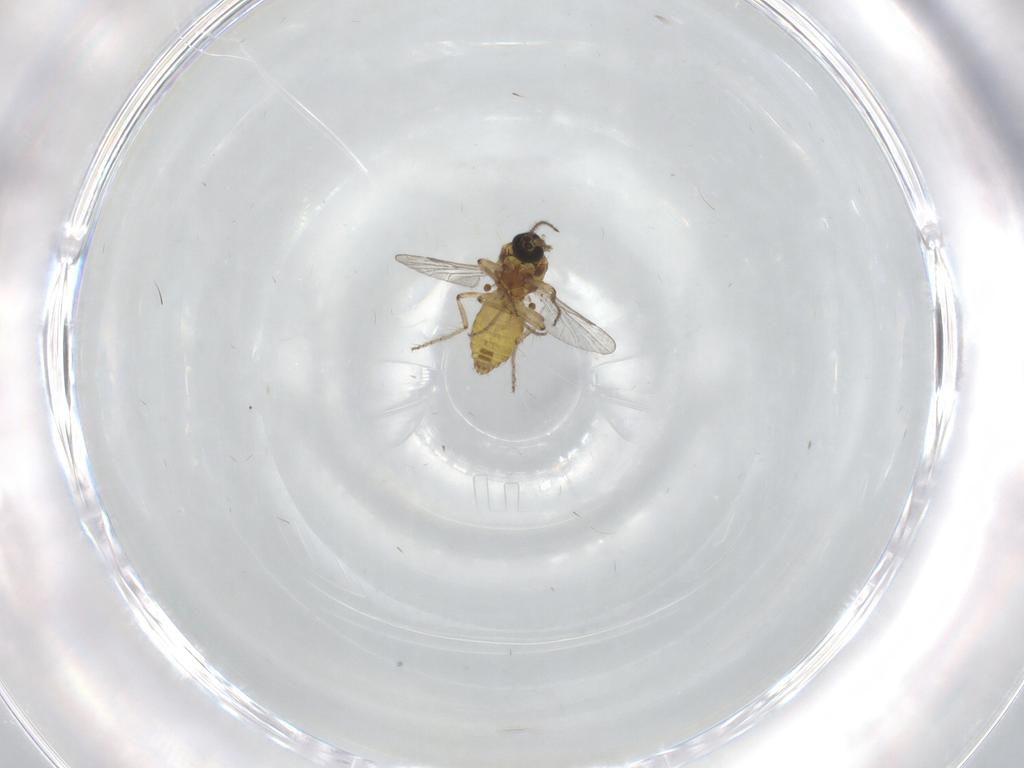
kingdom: Animalia
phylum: Arthropoda
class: Insecta
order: Diptera
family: Ceratopogonidae
